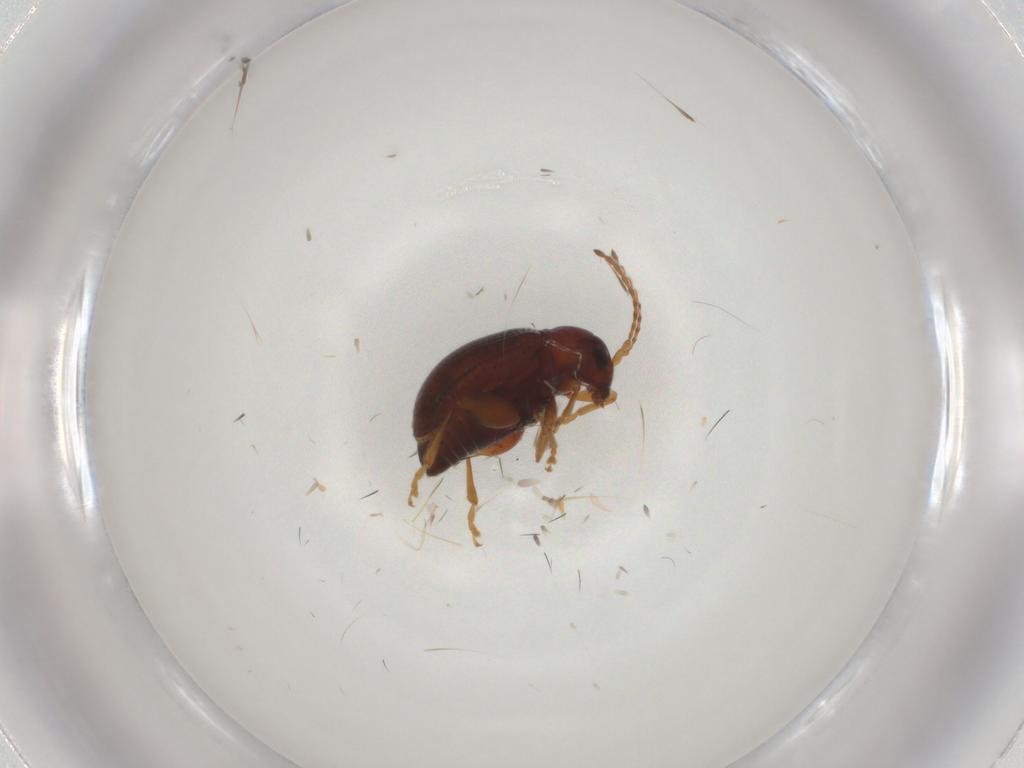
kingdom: Animalia
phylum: Arthropoda
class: Insecta
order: Coleoptera
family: Chrysomelidae
